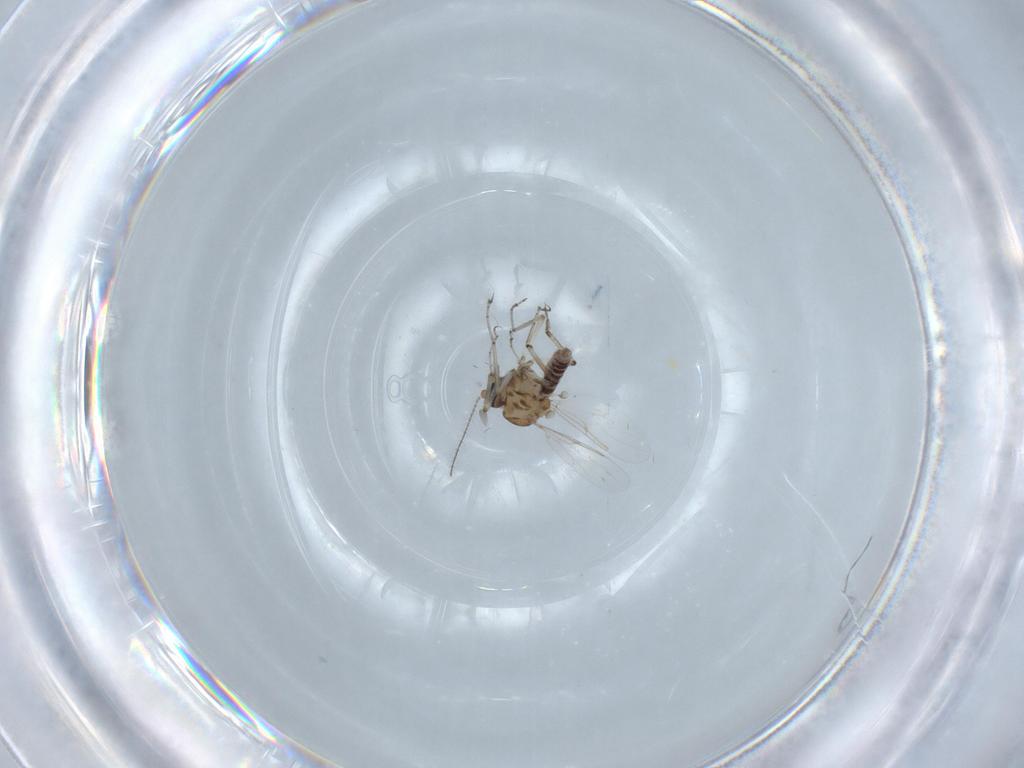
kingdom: Animalia
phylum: Arthropoda
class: Insecta
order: Diptera
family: Ceratopogonidae
